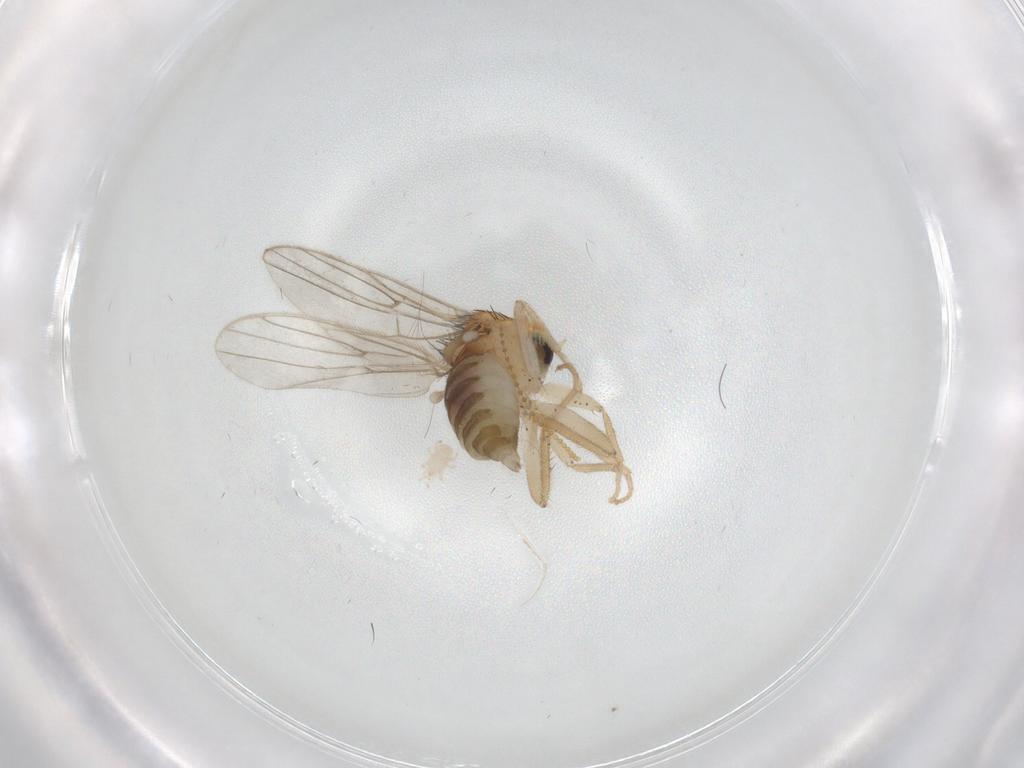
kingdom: Animalia
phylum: Arthropoda
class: Insecta
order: Diptera
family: Hybotidae
